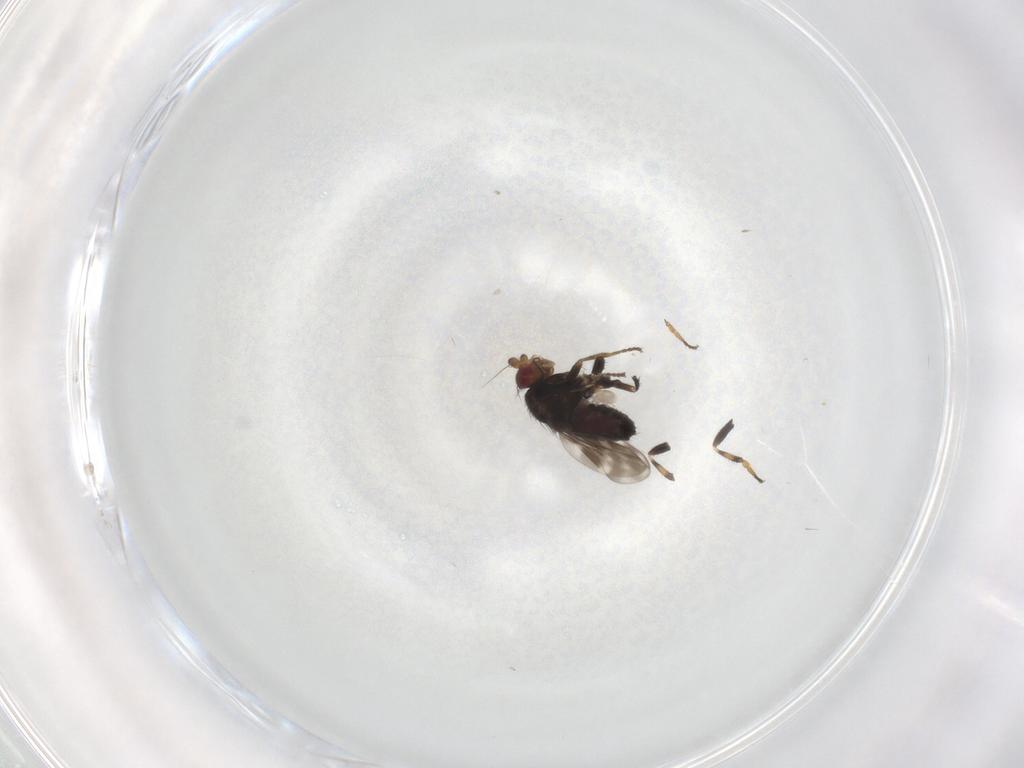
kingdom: Animalia
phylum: Arthropoda
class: Insecta
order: Diptera
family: Sphaeroceridae
